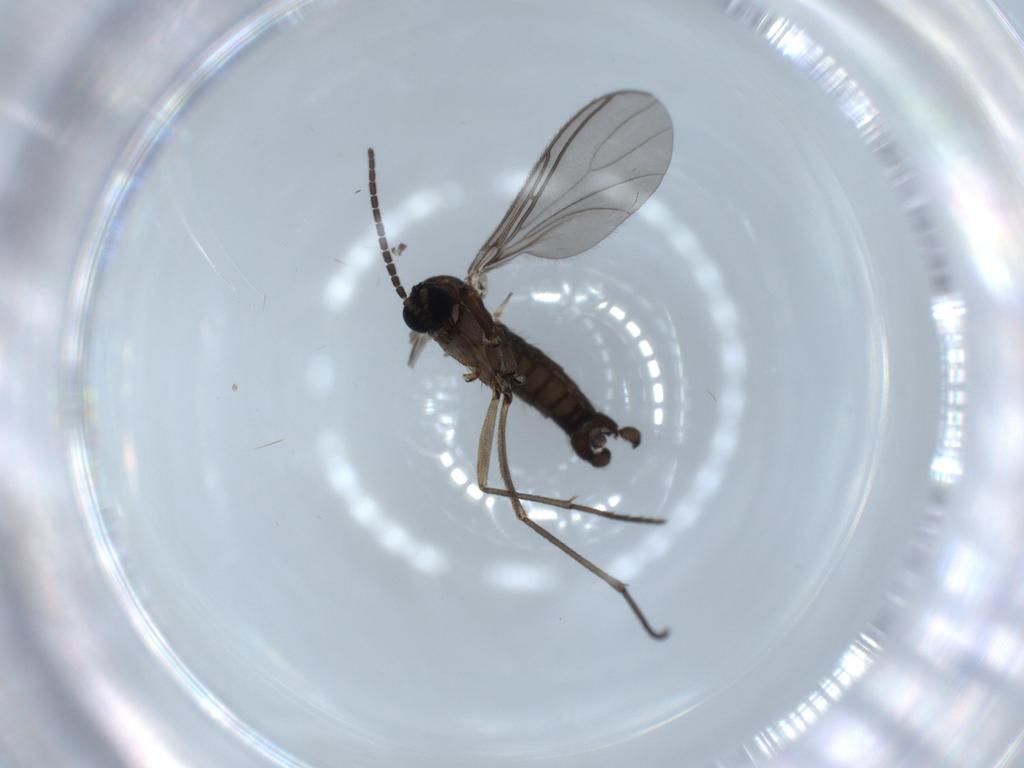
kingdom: Animalia
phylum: Arthropoda
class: Insecta
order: Diptera
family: Sciaridae
